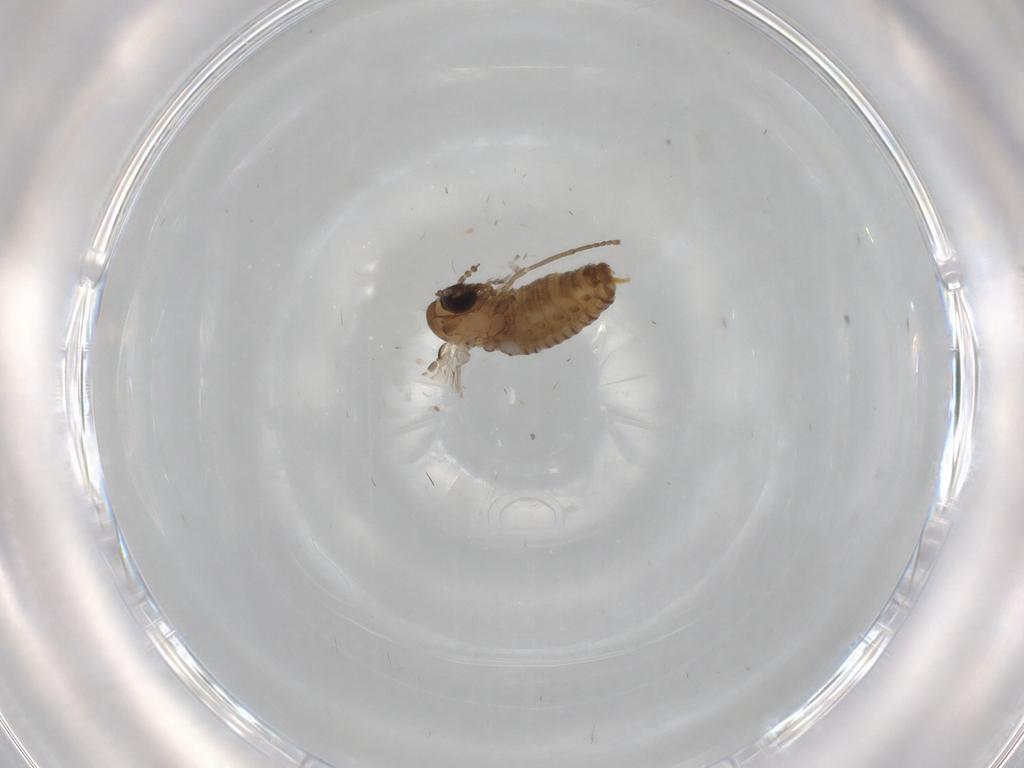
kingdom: Animalia
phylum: Arthropoda
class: Insecta
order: Diptera
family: Psychodidae
